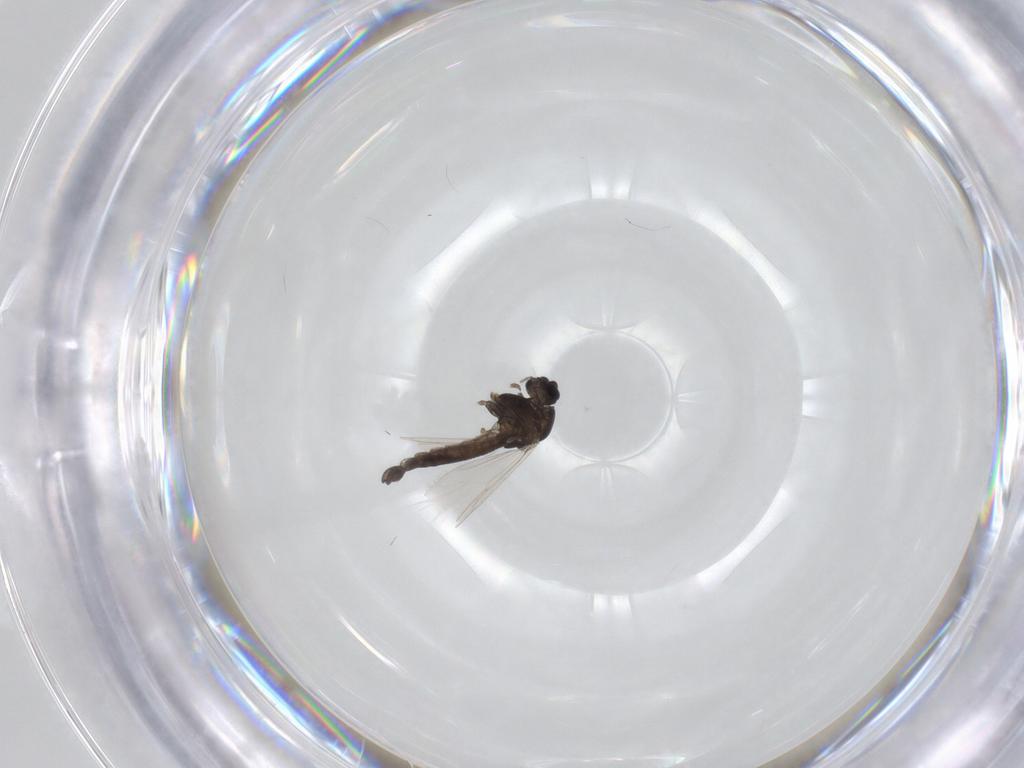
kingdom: Animalia
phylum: Arthropoda
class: Insecta
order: Diptera
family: Chironomidae
